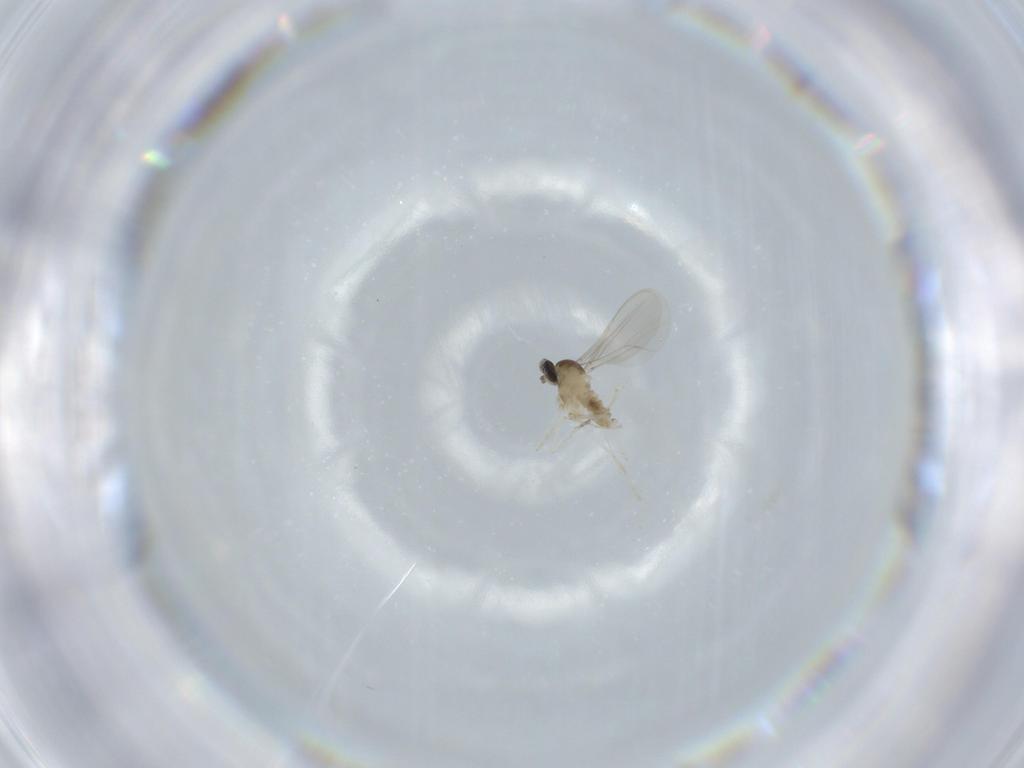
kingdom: Animalia
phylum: Arthropoda
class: Insecta
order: Diptera
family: Cecidomyiidae
